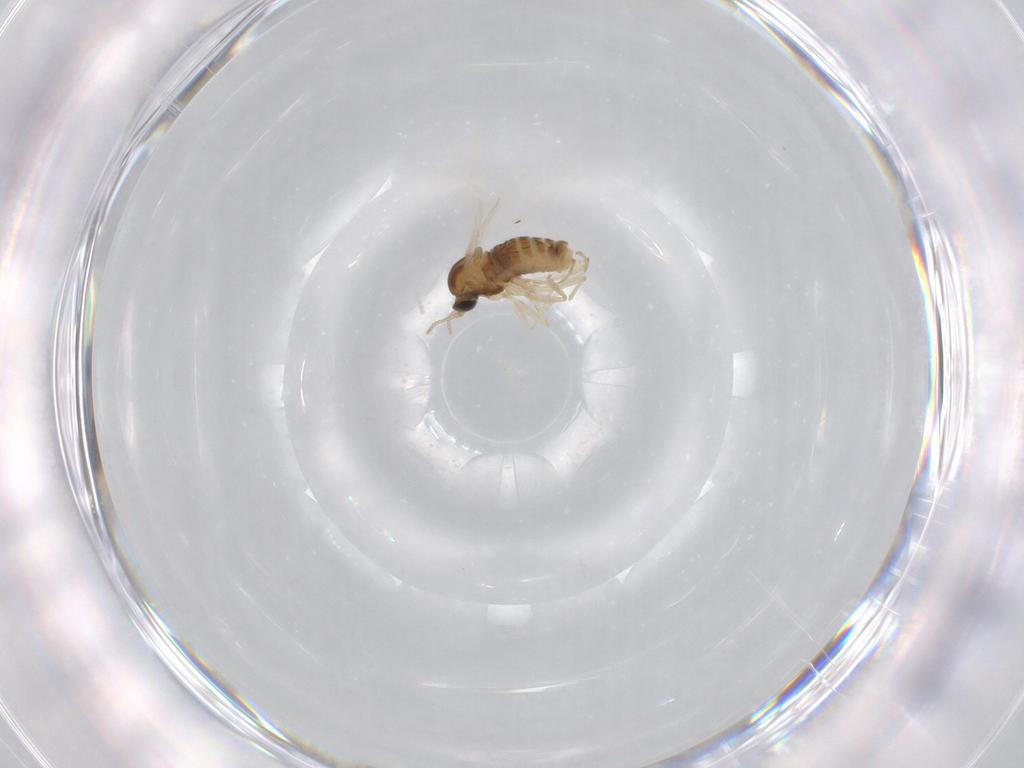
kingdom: Animalia
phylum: Arthropoda
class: Insecta
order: Diptera
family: Cecidomyiidae
